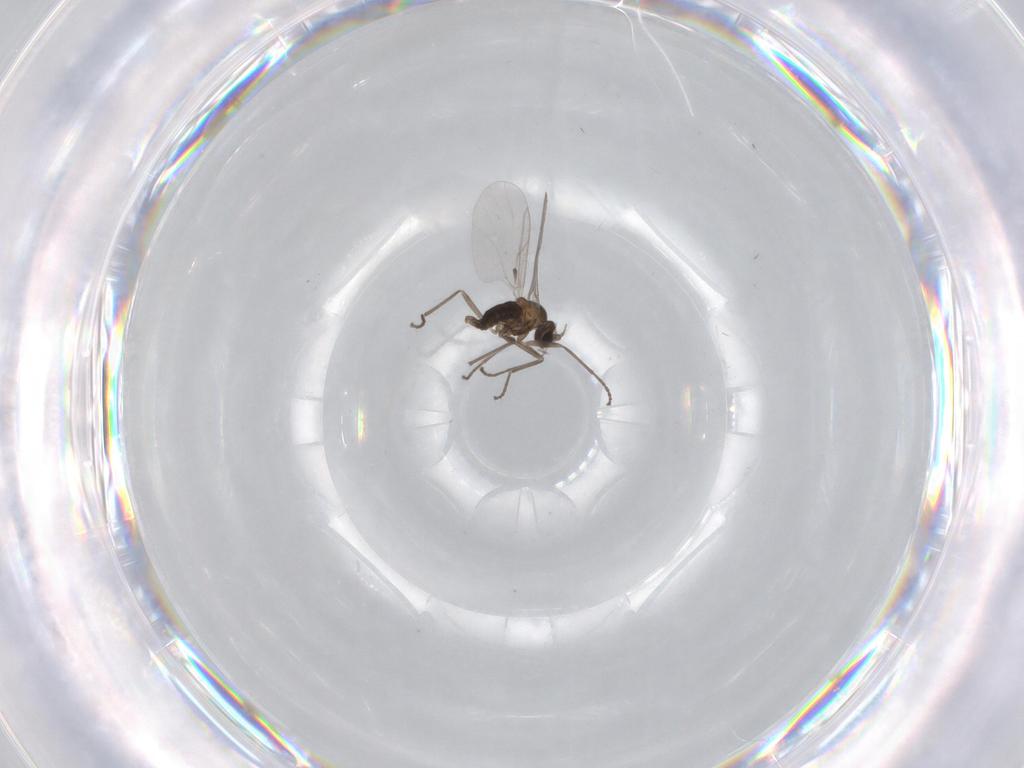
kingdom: Animalia
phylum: Arthropoda
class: Insecta
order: Diptera
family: Cecidomyiidae
